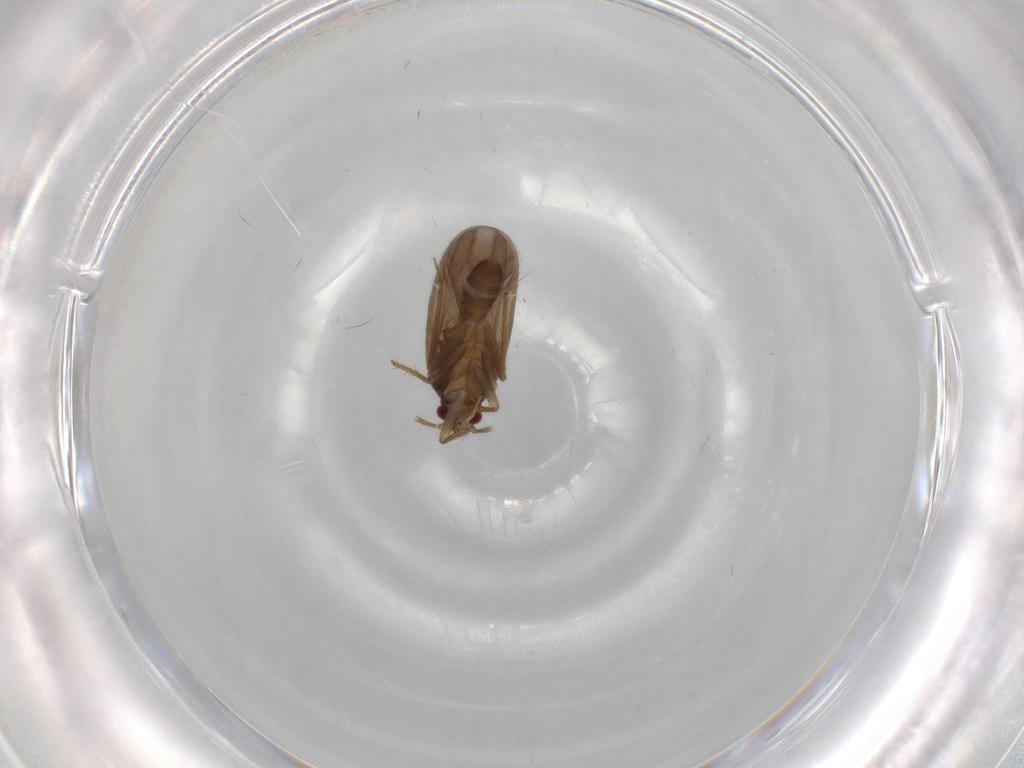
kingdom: Animalia
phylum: Arthropoda
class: Insecta
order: Hemiptera
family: Ceratocombidae
